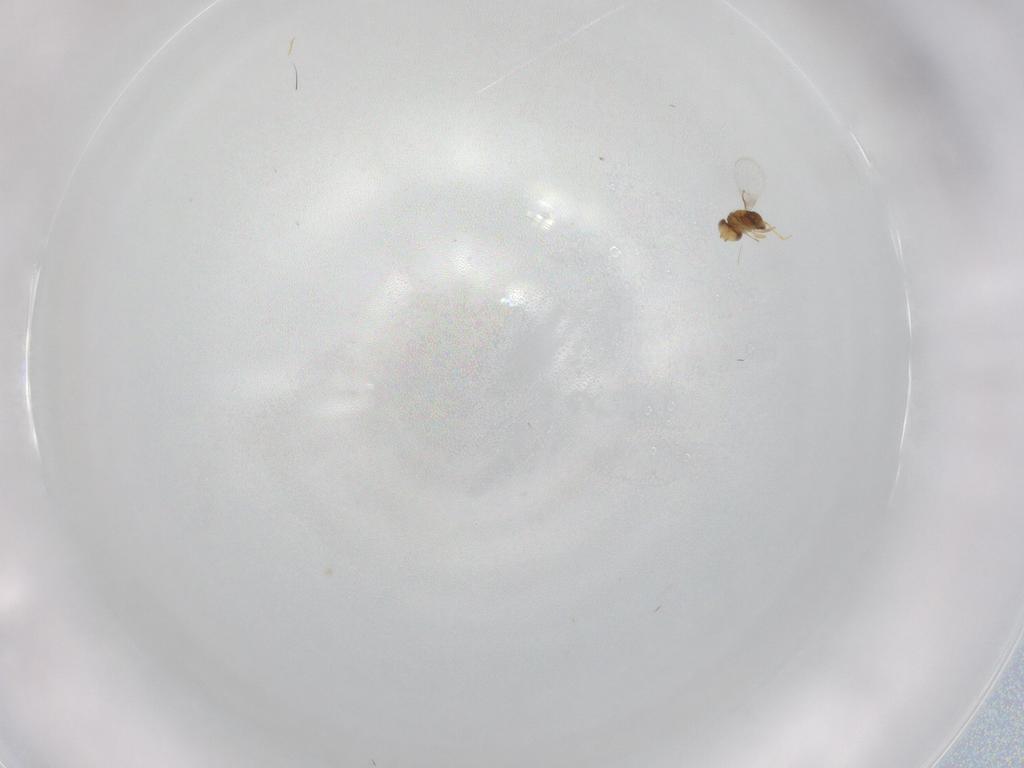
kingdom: Animalia
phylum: Arthropoda
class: Insecta
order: Hymenoptera
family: Trichogrammatidae
